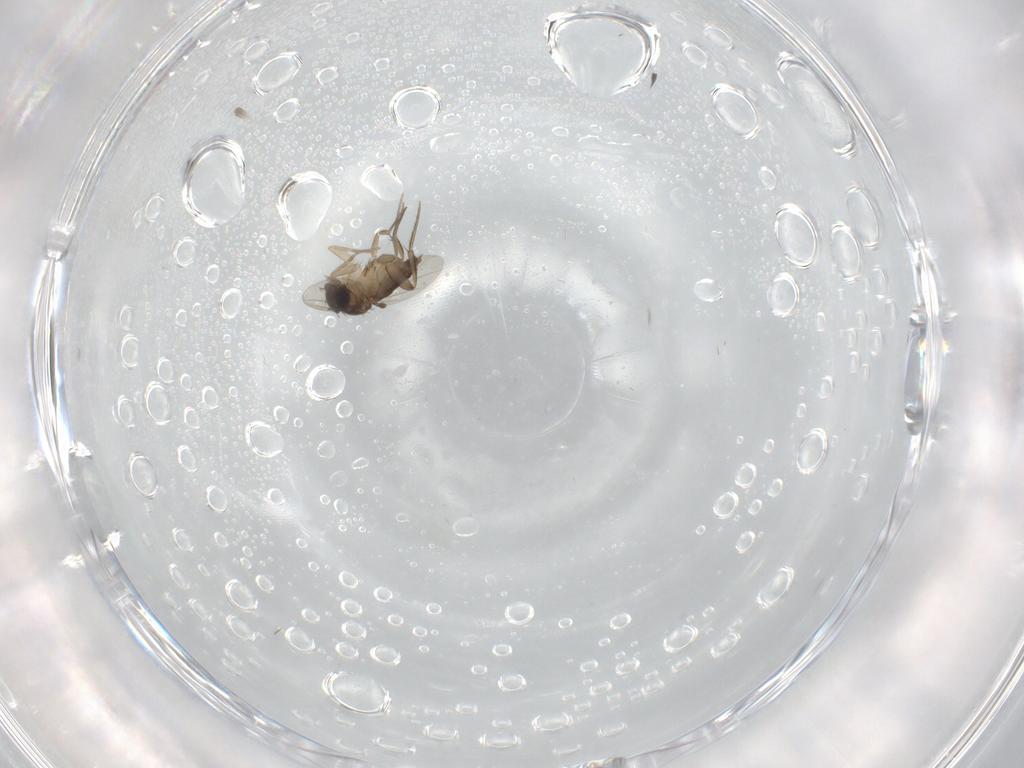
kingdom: Animalia
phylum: Arthropoda
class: Insecta
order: Diptera
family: Phoridae
